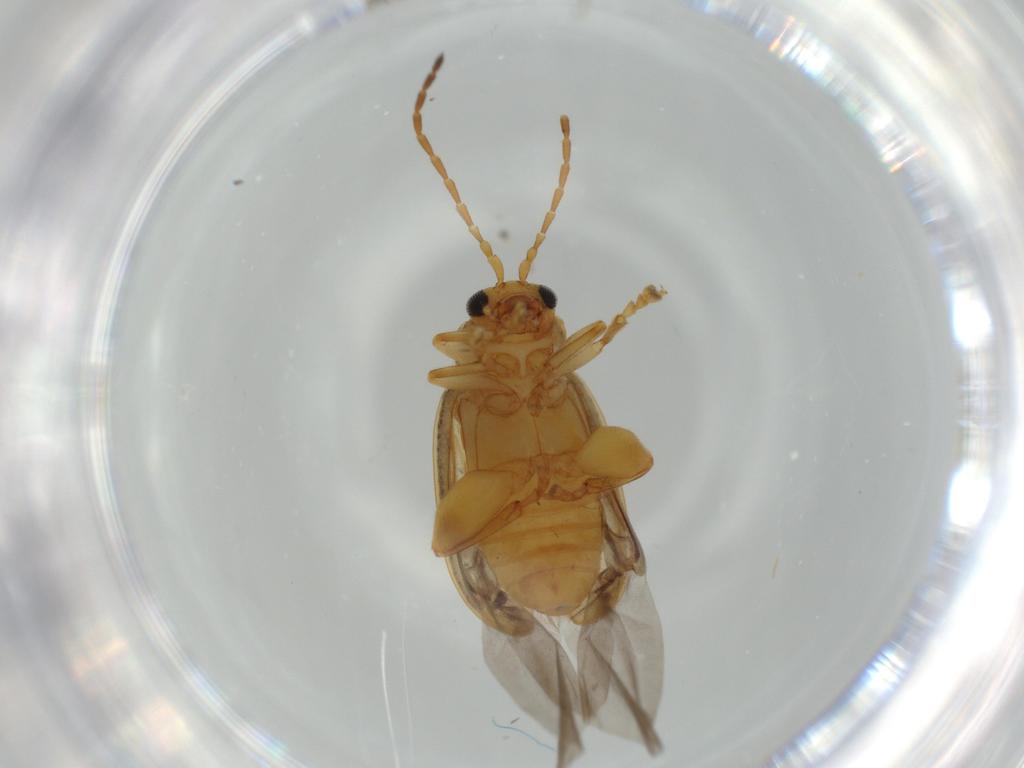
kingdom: Animalia
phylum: Arthropoda
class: Insecta
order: Coleoptera
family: Chrysomelidae
